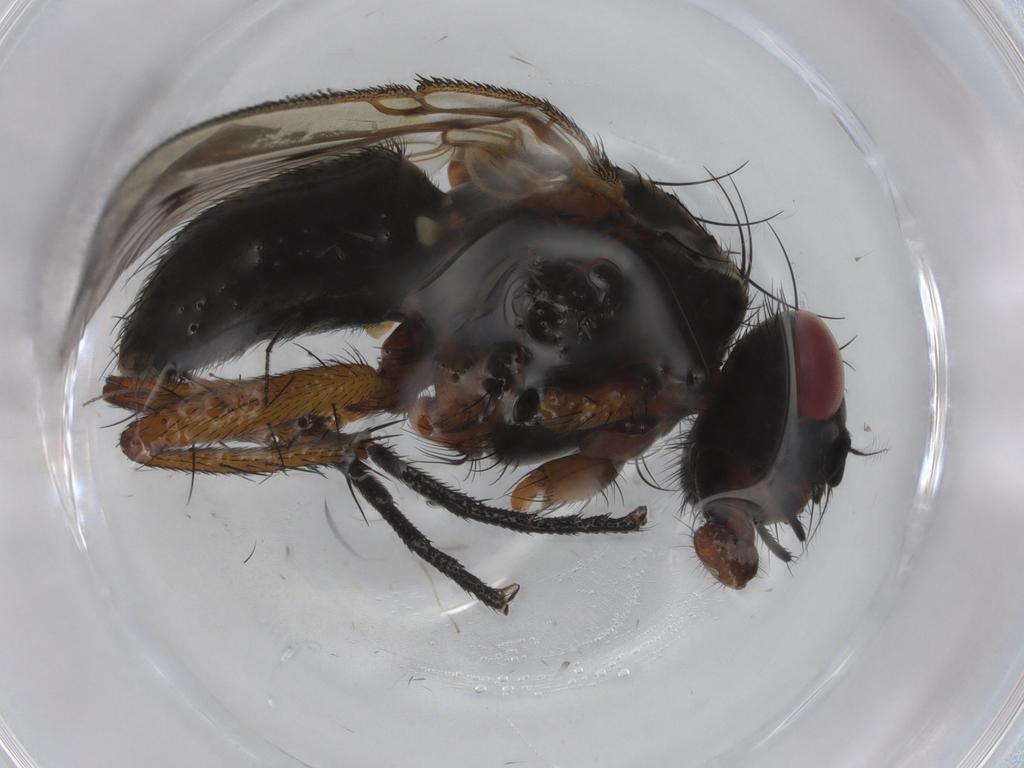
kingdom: Animalia
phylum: Arthropoda
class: Insecta
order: Diptera
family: Muscidae
